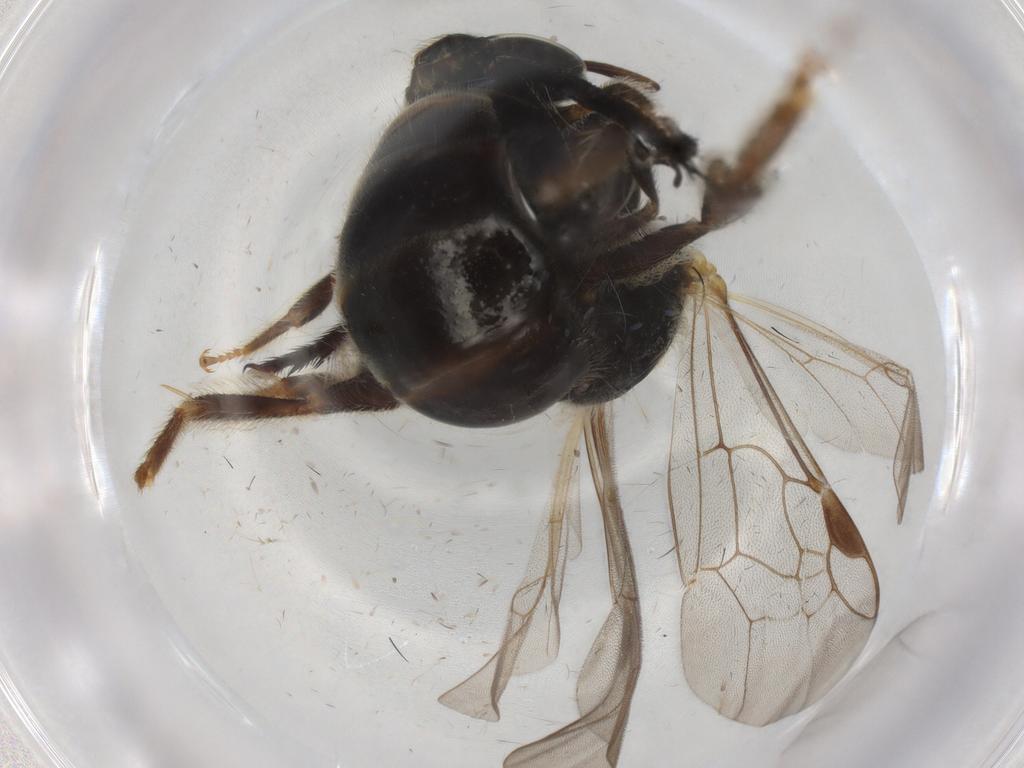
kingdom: Animalia
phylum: Arthropoda
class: Insecta
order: Hymenoptera
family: Halictidae
